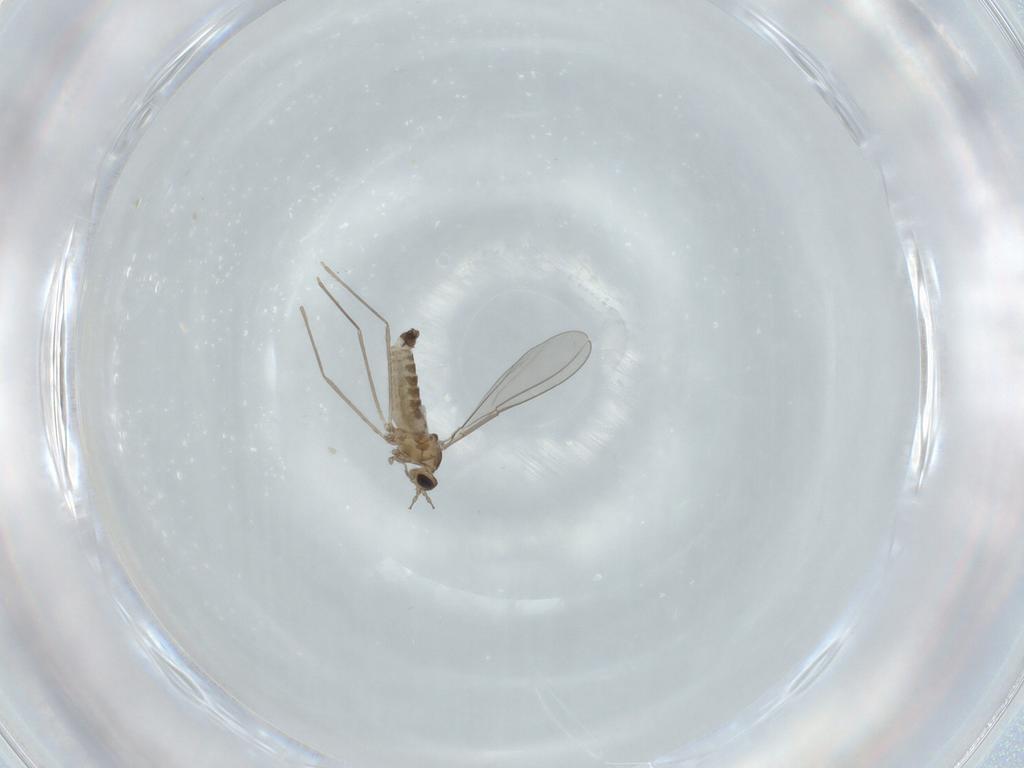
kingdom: Animalia
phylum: Arthropoda
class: Insecta
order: Diptera
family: Cecidomyiidae
